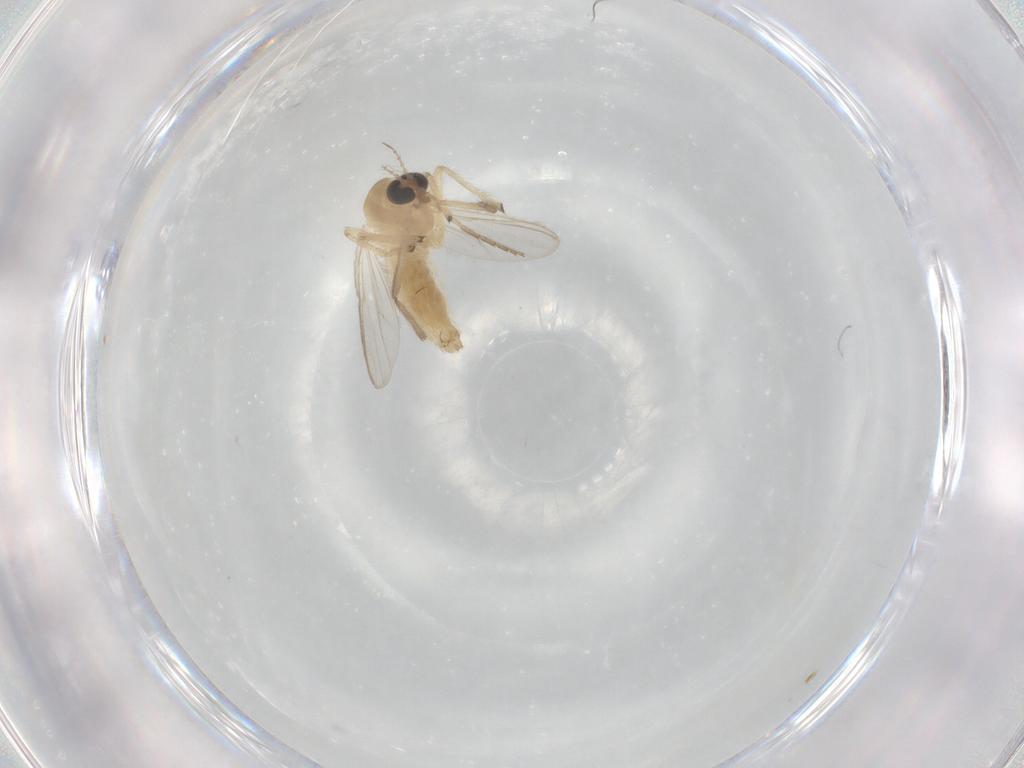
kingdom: Animalia
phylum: Arthropoda
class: Insecta
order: Diptera
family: Chironomidae
